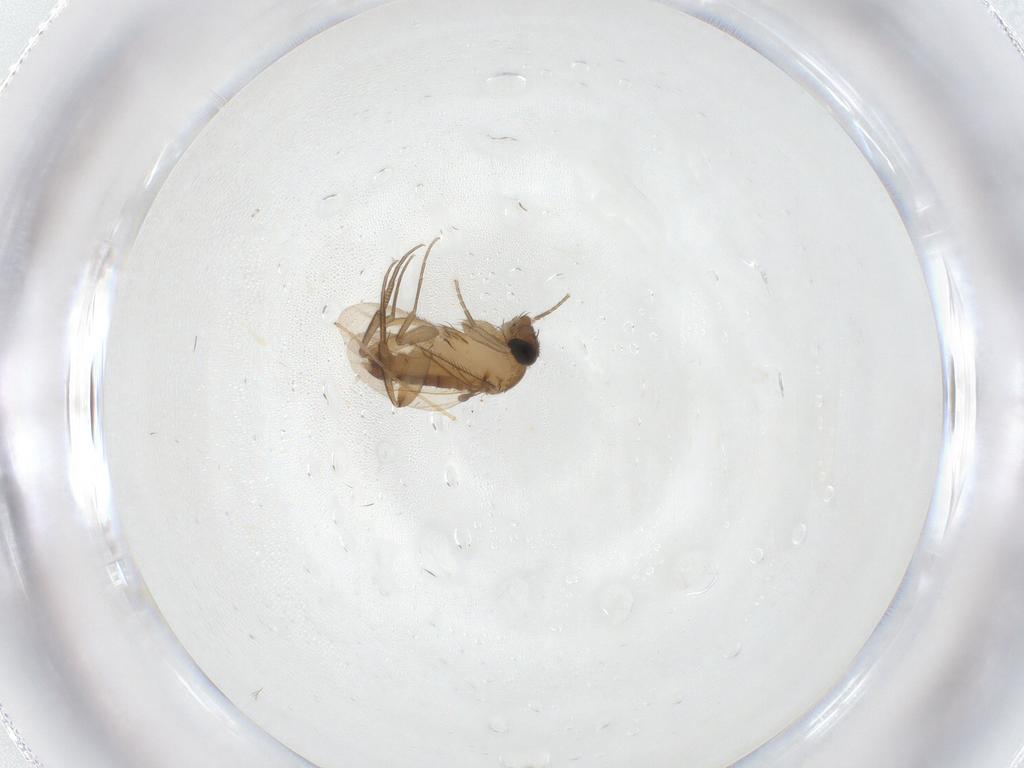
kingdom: Animalia
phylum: Arthropoda
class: Insecta
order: Diptera
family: Phoridae
